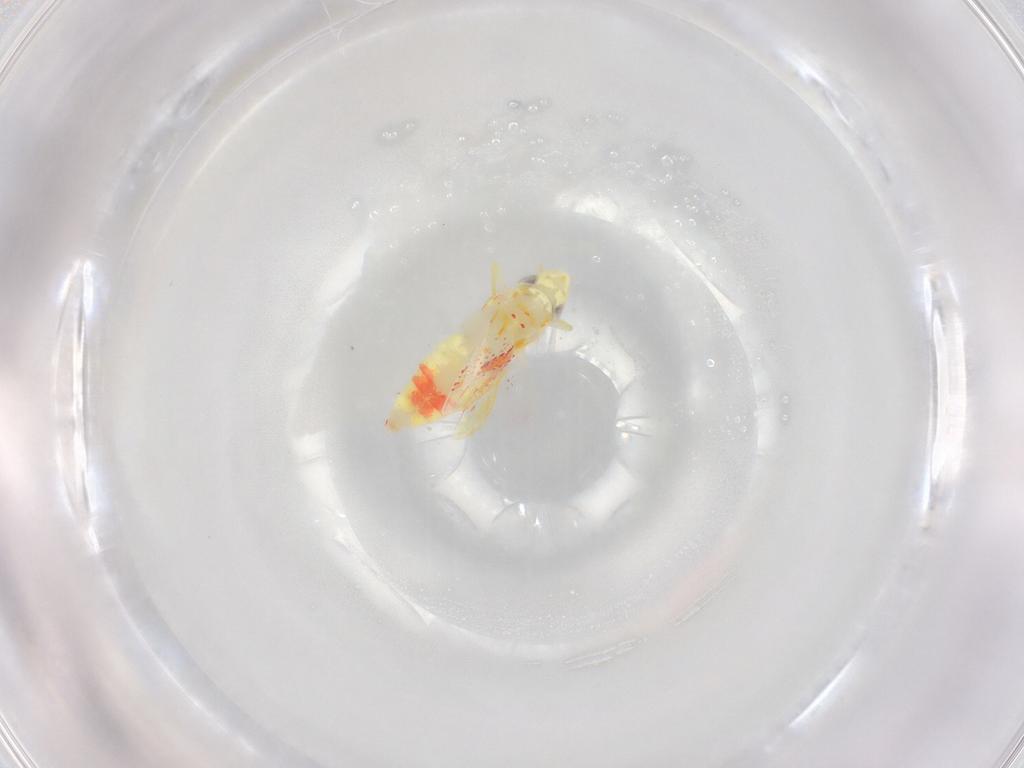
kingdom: Animalia
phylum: Arthropoda
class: Insecta
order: Hemiptera
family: Cicadellidae
